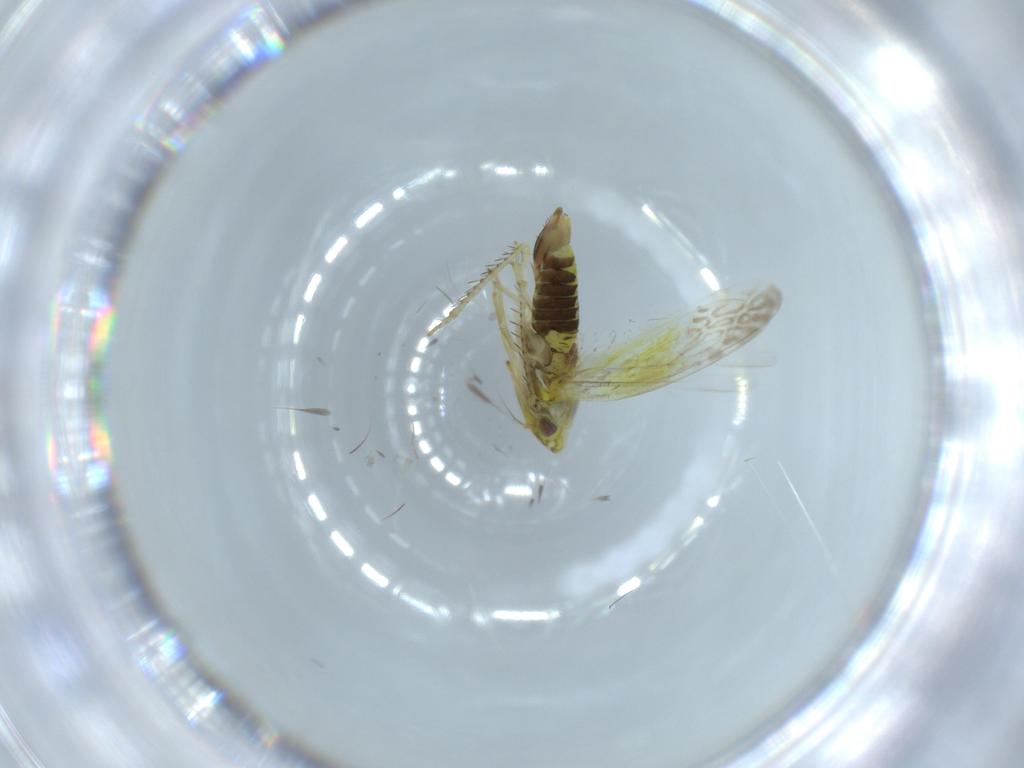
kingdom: Animalia
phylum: Arthropoda
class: Insecta
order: Hemiptera
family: Cicadellidae
